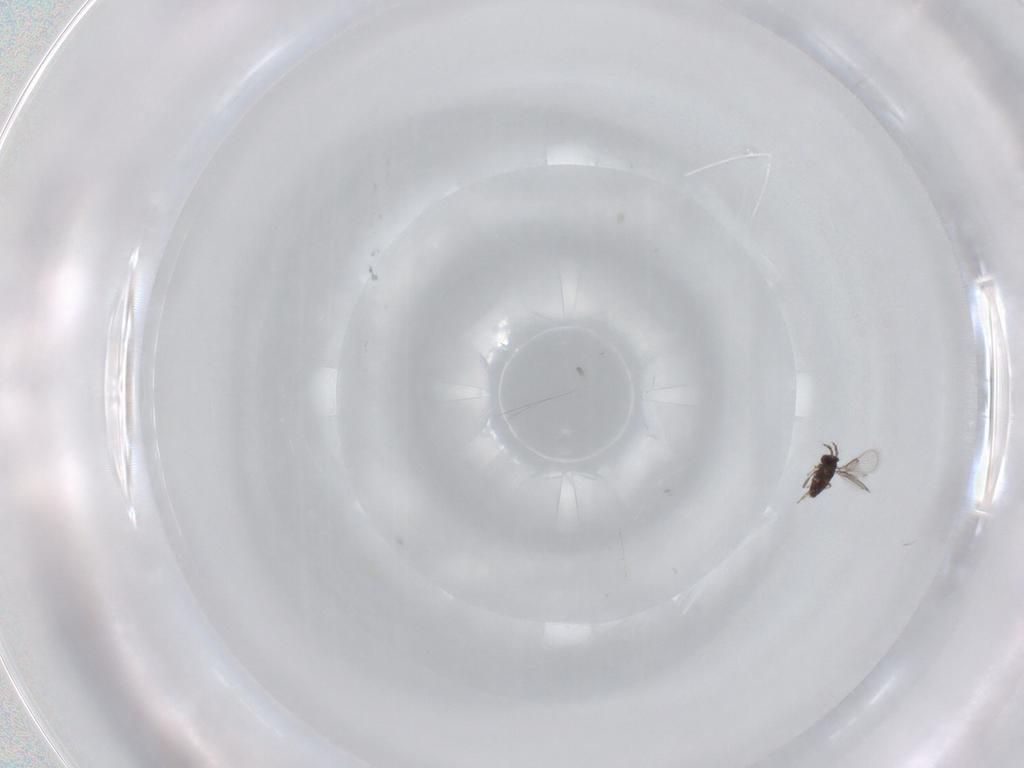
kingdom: Animalia
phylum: Arthropoda
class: Insecta
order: Hymenoptera
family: Trichogrammatidae
